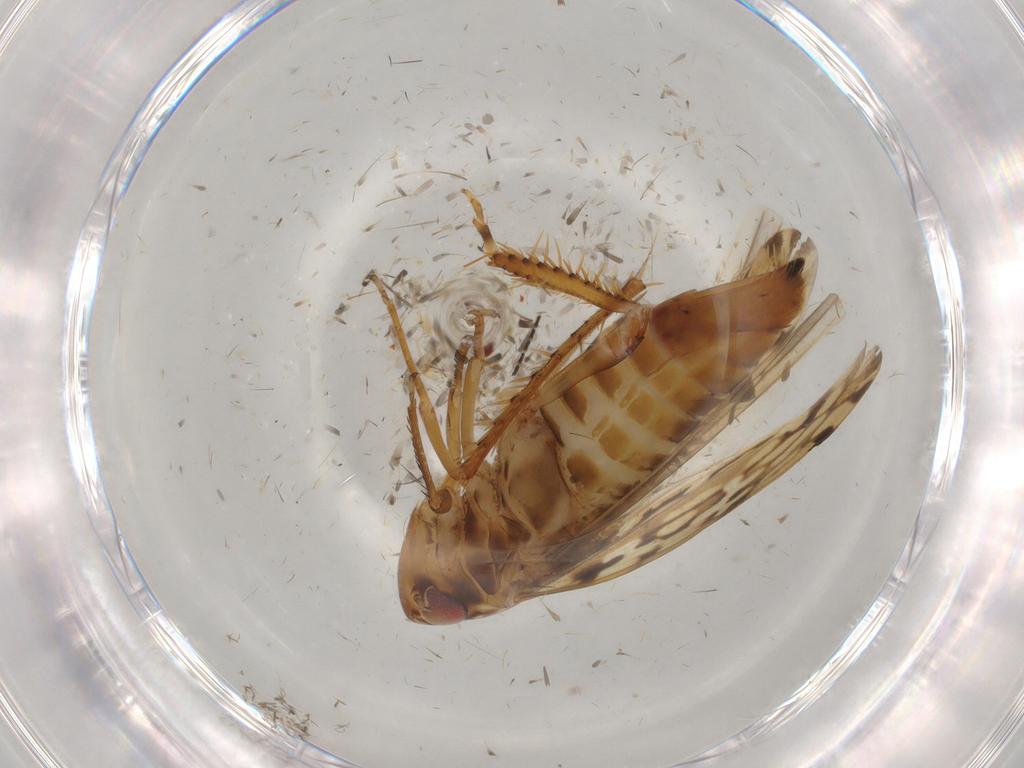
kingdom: Animalia
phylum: Arthropoda
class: Insecta
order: Hemiptera
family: Cicadellidae
